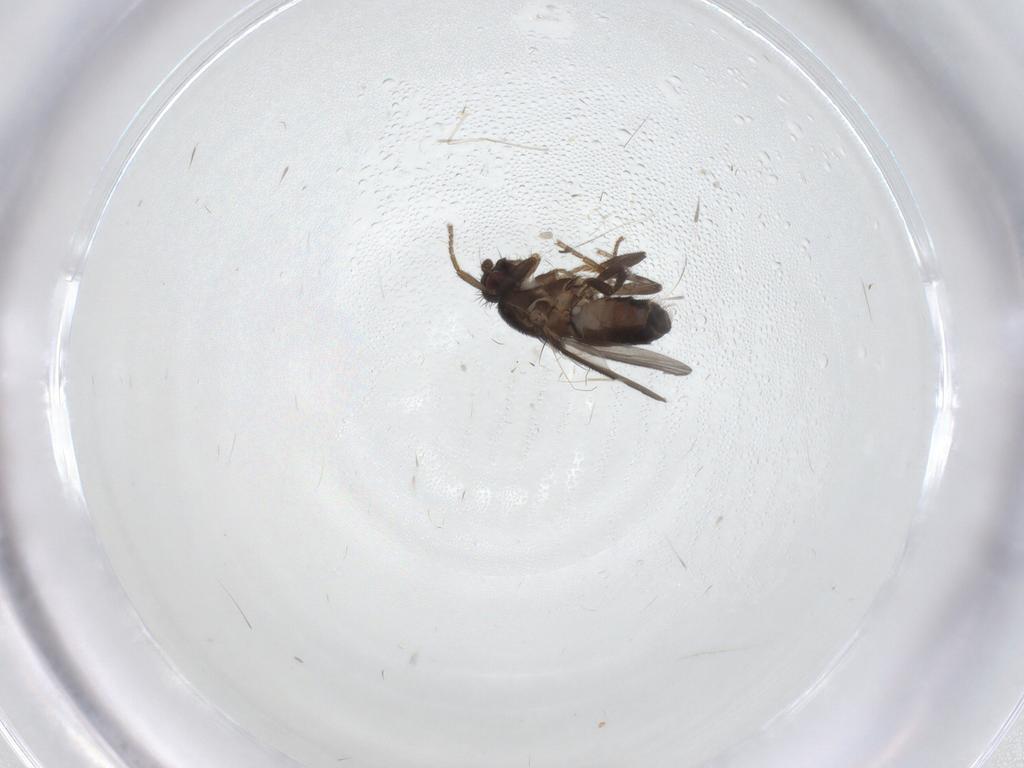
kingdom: Animalia
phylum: Arthropoda
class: Insecta
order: Diptera
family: Cecidomyiidae
